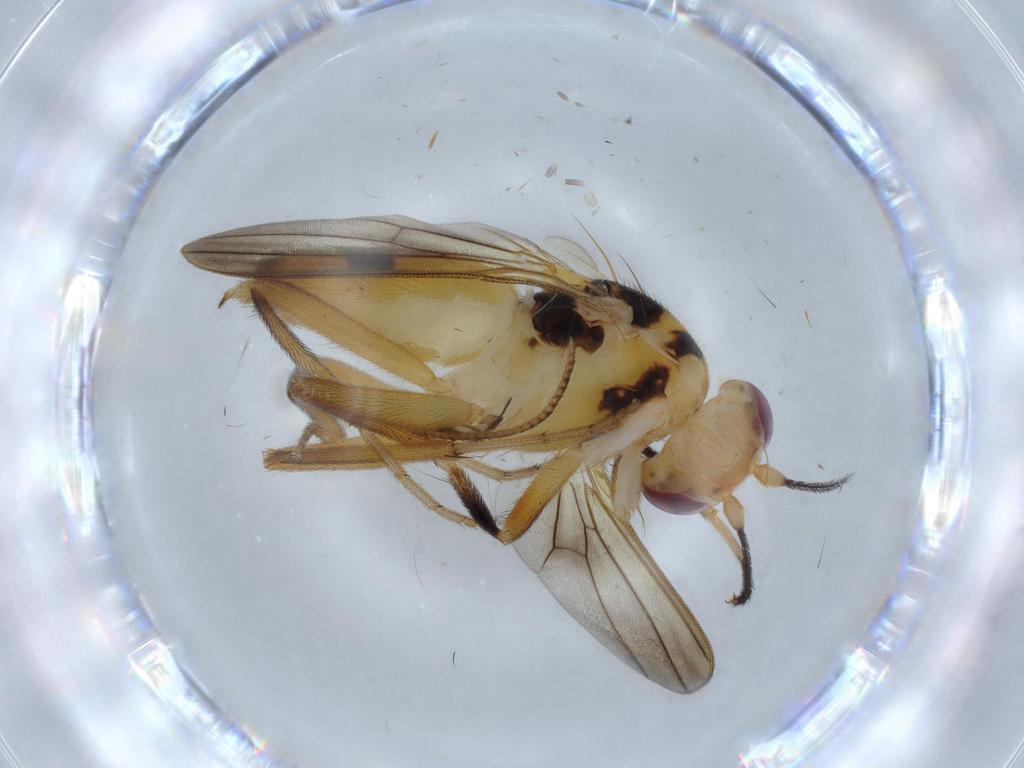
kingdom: Animalia
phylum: Arthropoda
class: Insecta
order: Diptera
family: Clusiidae
